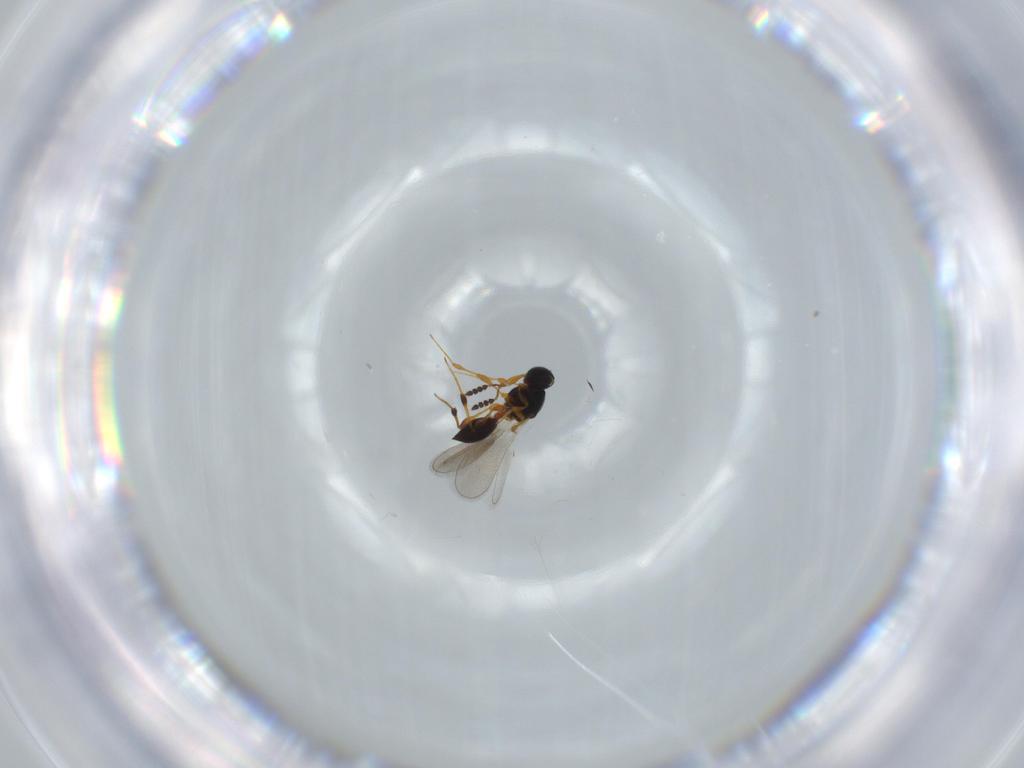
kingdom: Animalia
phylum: Arthropoda
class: Insecta
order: Hymenoptera
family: Platygastridae
